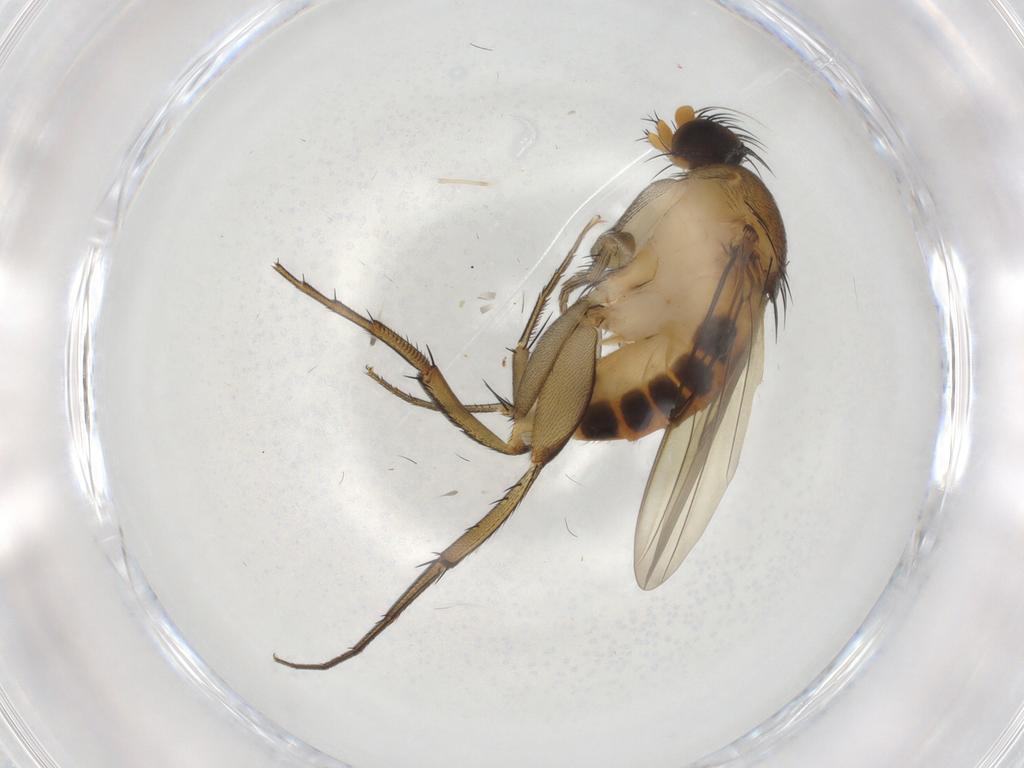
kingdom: Animalia
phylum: Arthropoda
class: Insecta
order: Diptera
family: Phoridae
